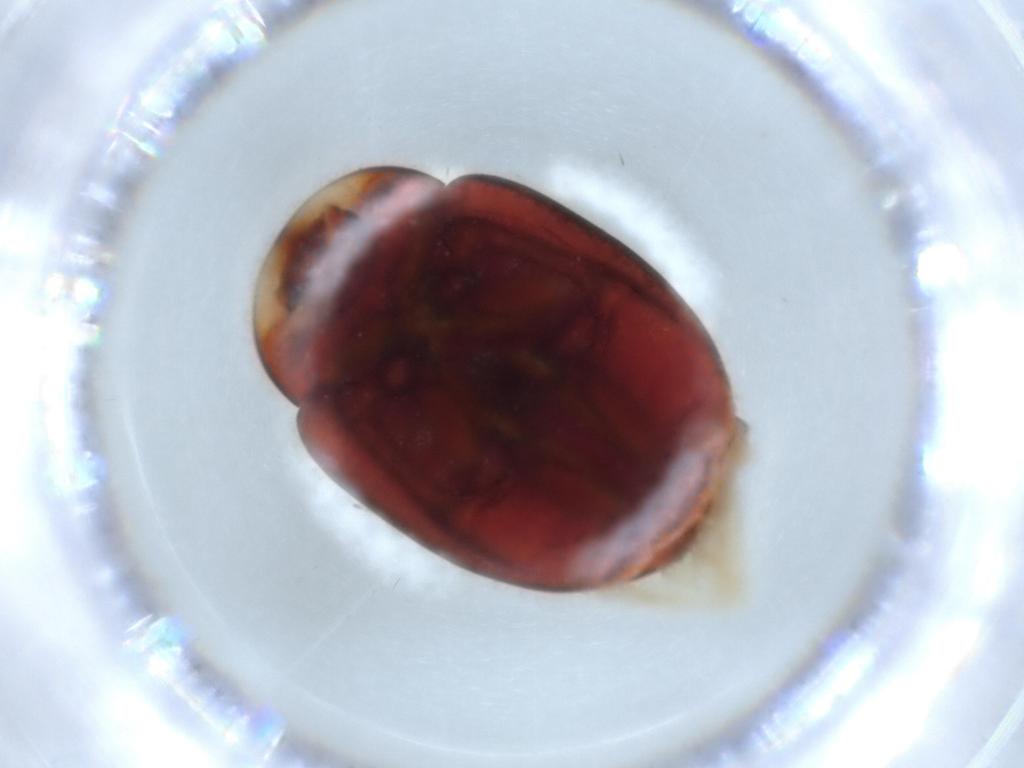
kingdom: Animalia
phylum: Arthropoda
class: Insecta
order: Coleoptera
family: Coccinellidae
